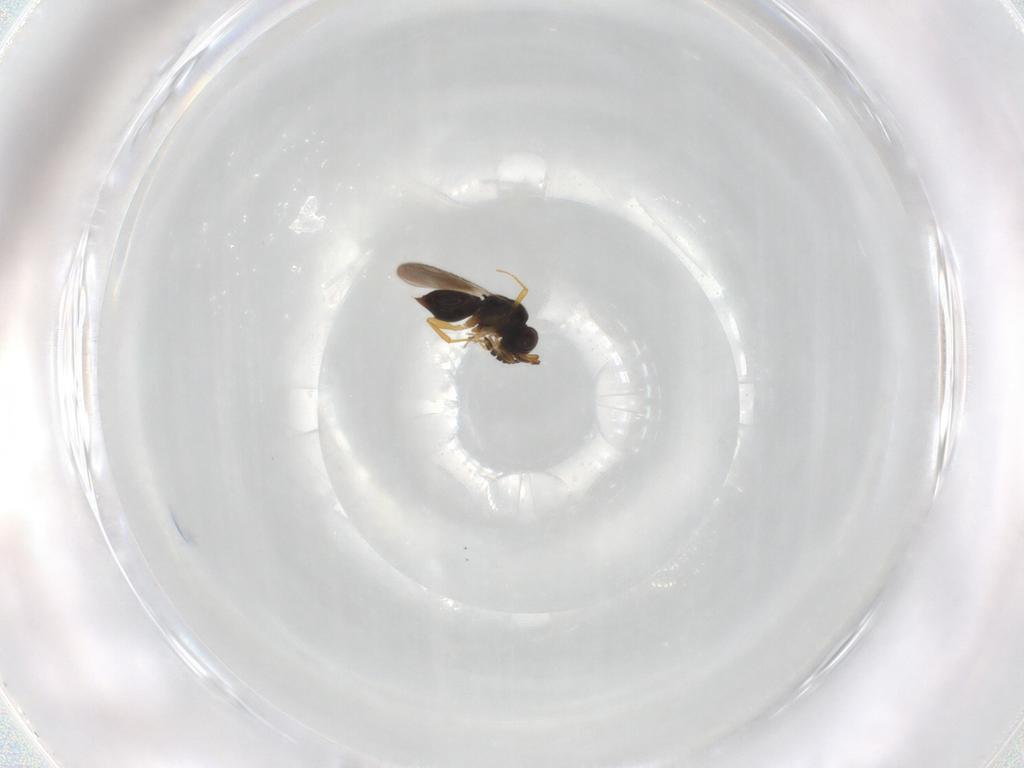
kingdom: Animalia
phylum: Arthropoda
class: Insecta
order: Hymenoptera
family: Ceraphronidae
